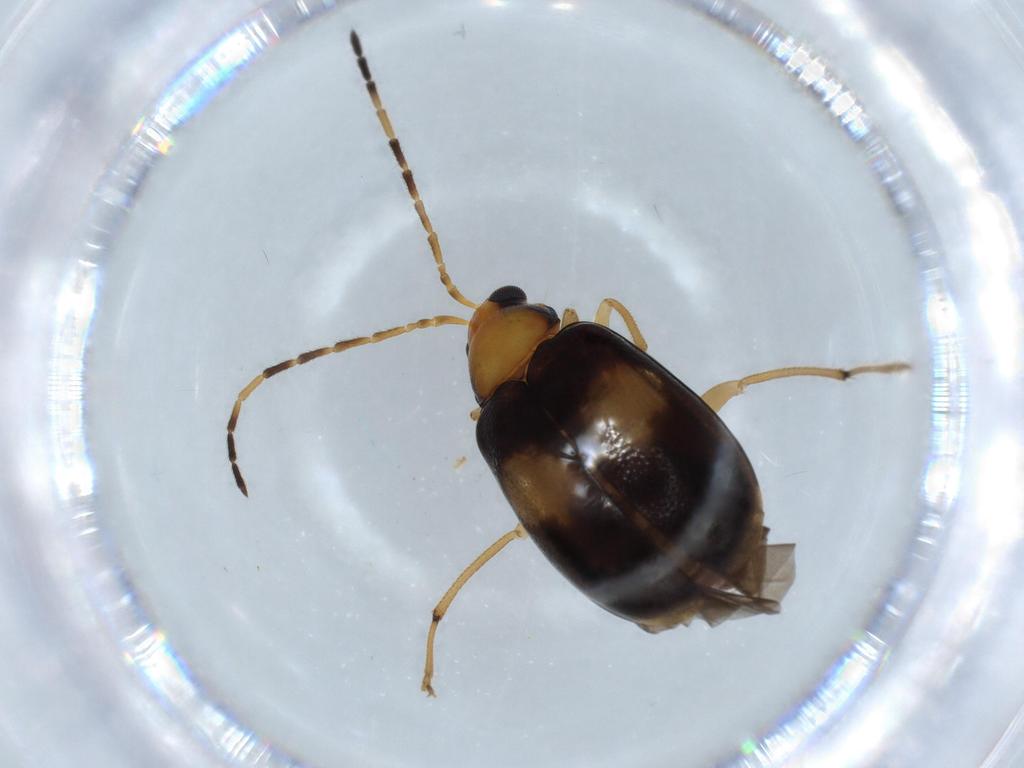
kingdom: Animalia
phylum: Arthropoda
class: Insecta
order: Coleoptera
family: Chrysomelidae
